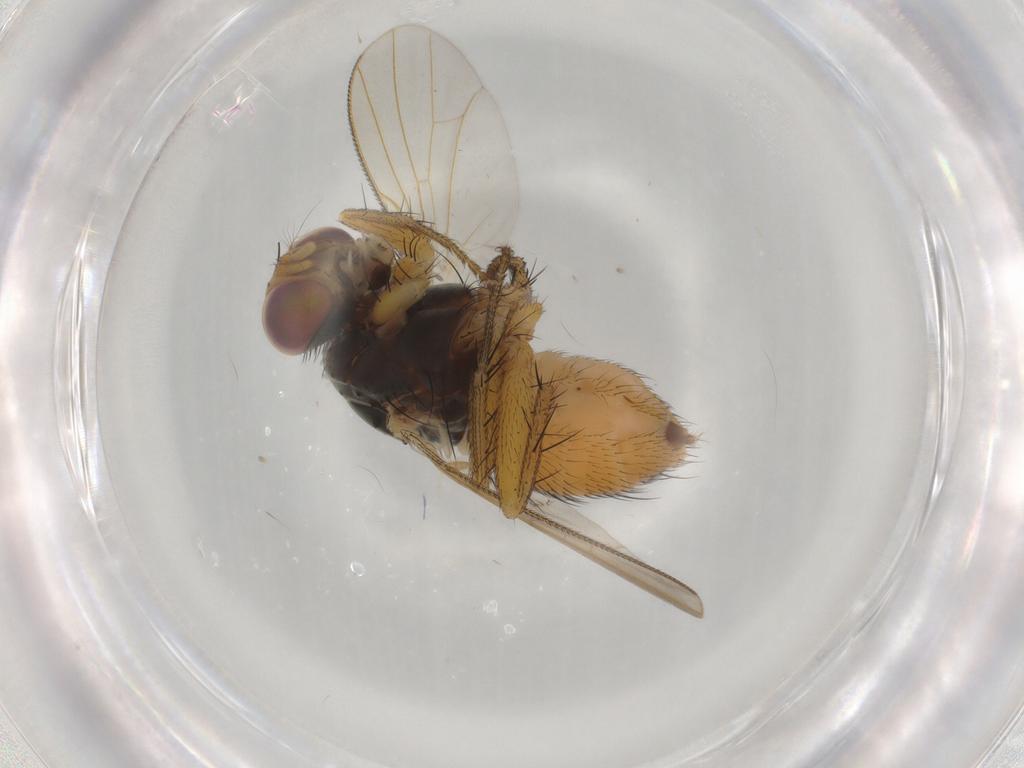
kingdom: Animalia
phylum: Arthropoda
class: Insecta
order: Diptera
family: Muscidae
